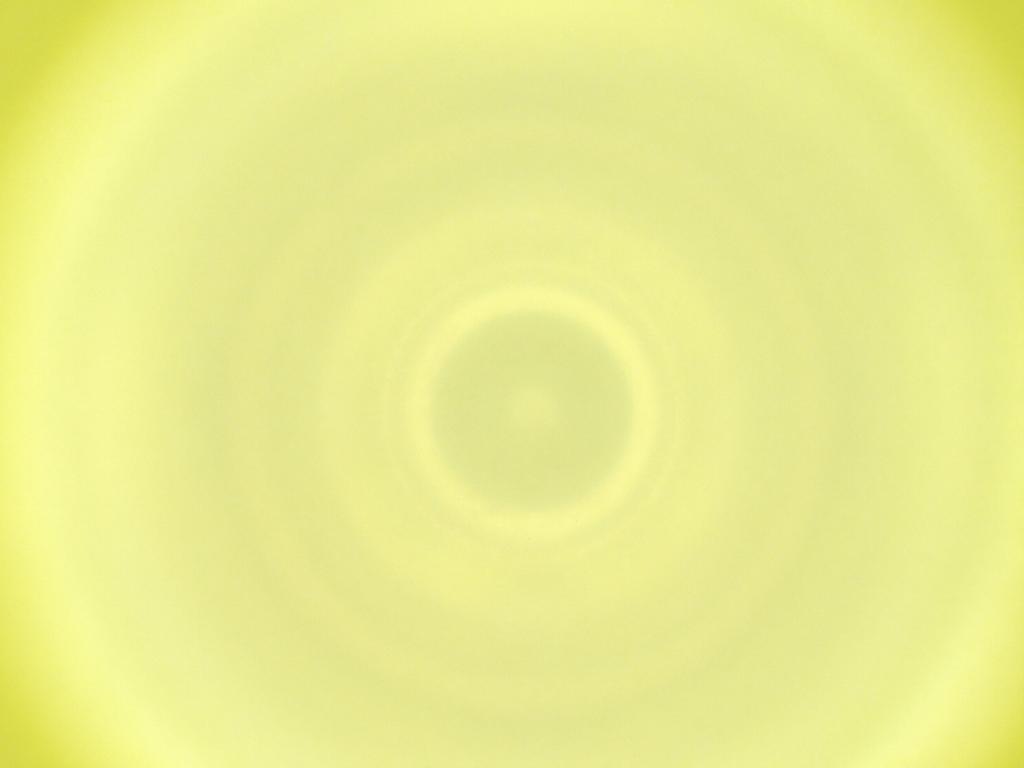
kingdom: Animalia
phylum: Arthropoda
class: Insecta
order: Diptera
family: Cecidomyiidae
